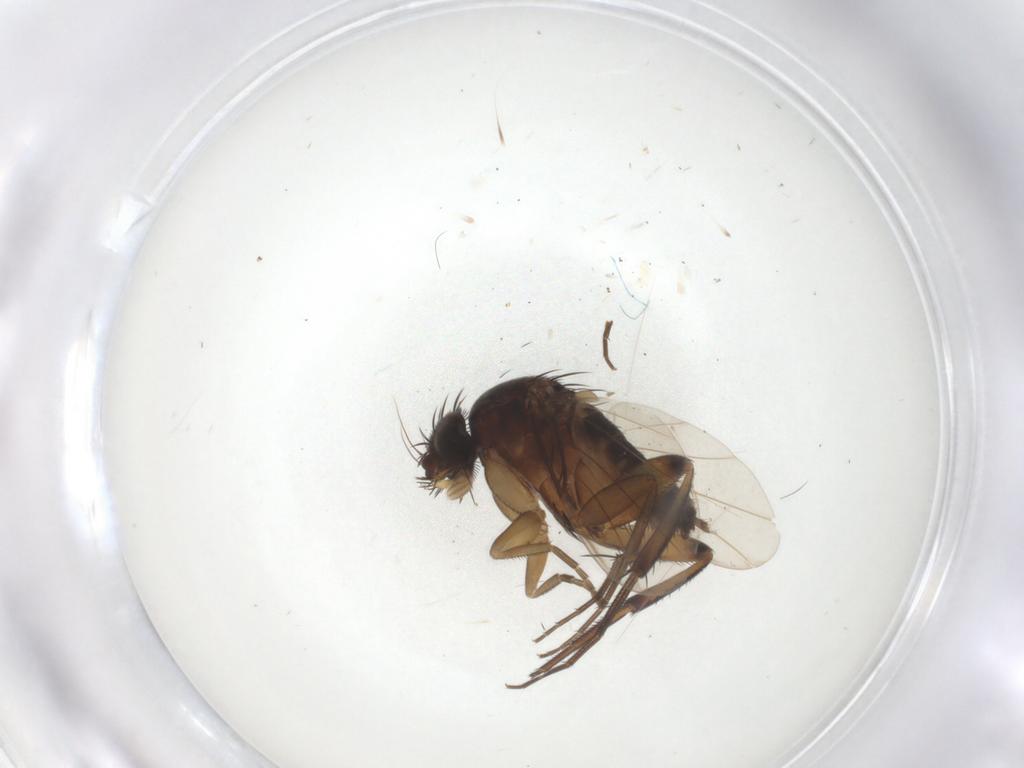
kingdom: Animalia
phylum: Arthropoda
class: Insecta
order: Diptera
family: Phoridae
